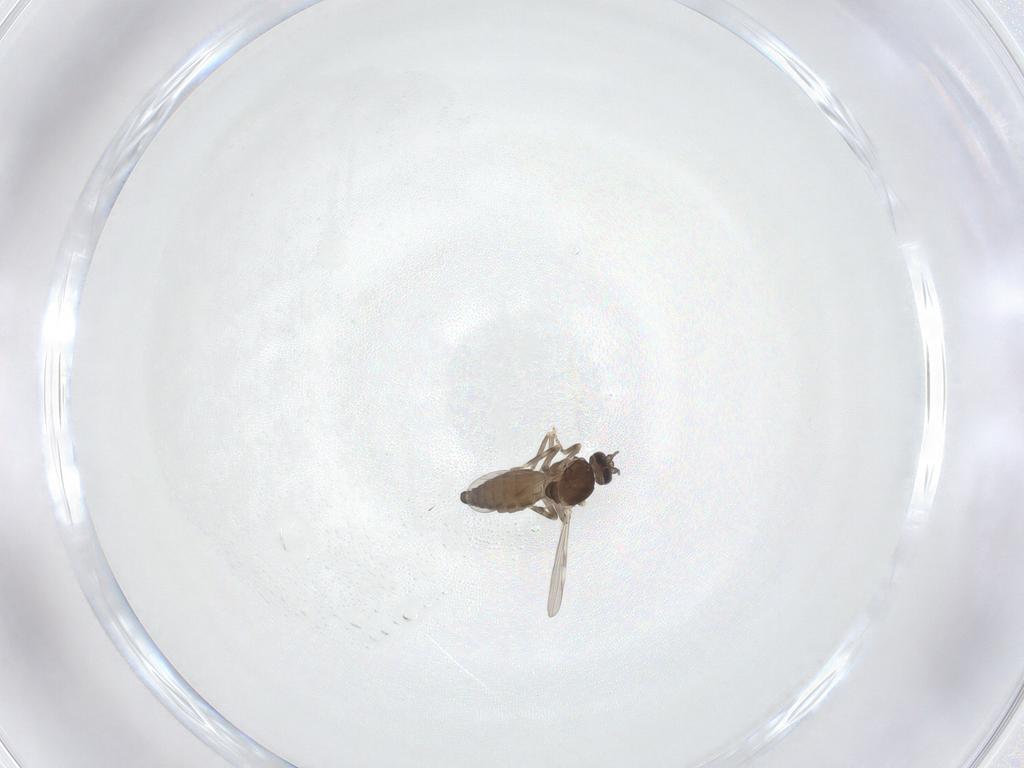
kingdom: Animalia
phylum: Arthropoda
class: Insecta
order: Diptera
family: Ceratopogonidae
